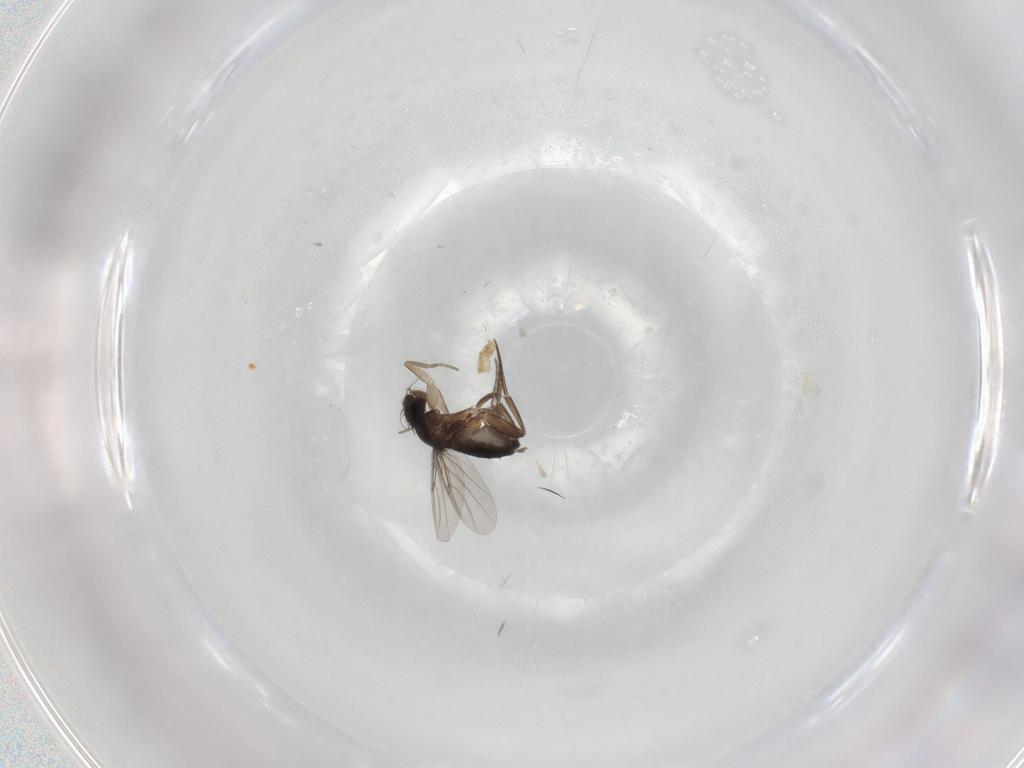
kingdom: Animalia
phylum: Arthropoda
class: Insecta
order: Diptera
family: Phoridae
